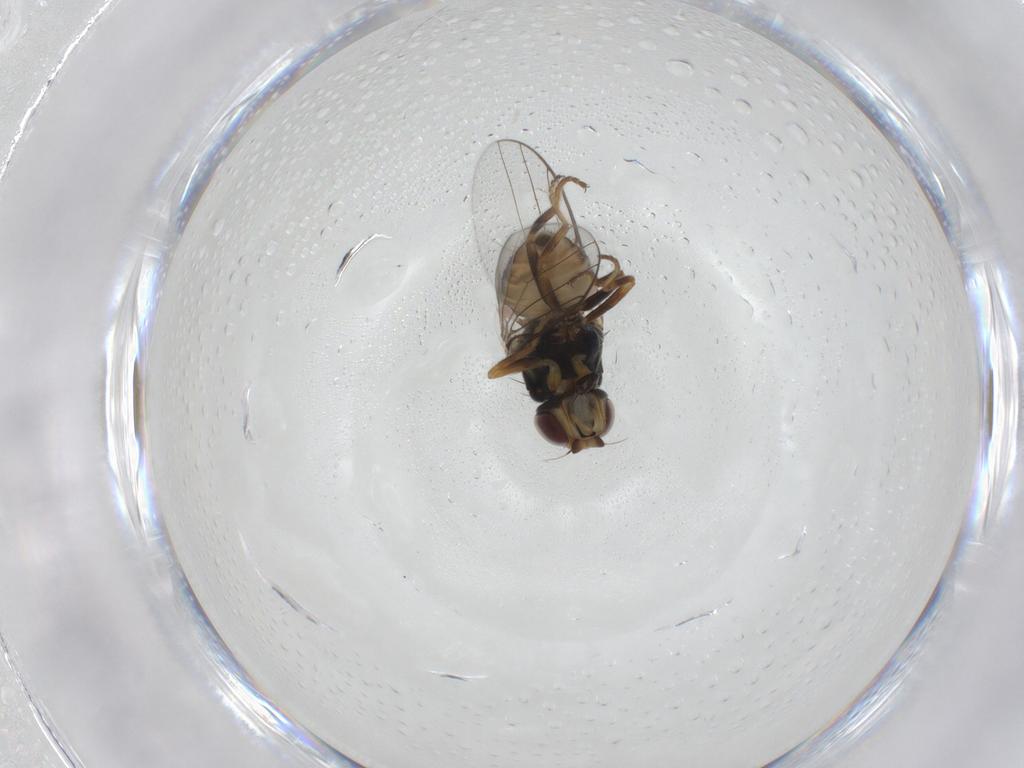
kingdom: Animalia
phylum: Arthropoda
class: Insecta
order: Diptera
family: Chloropidae
